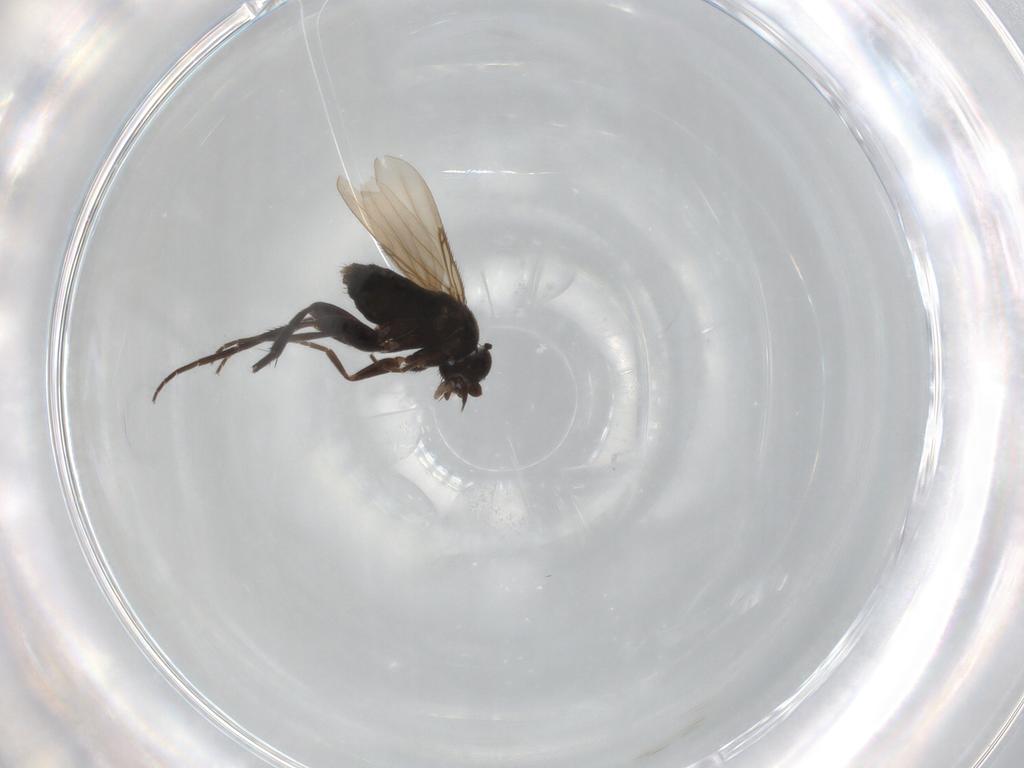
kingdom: Animalia
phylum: Arthropoda
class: Insecta
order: Diptera
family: Phoridae
